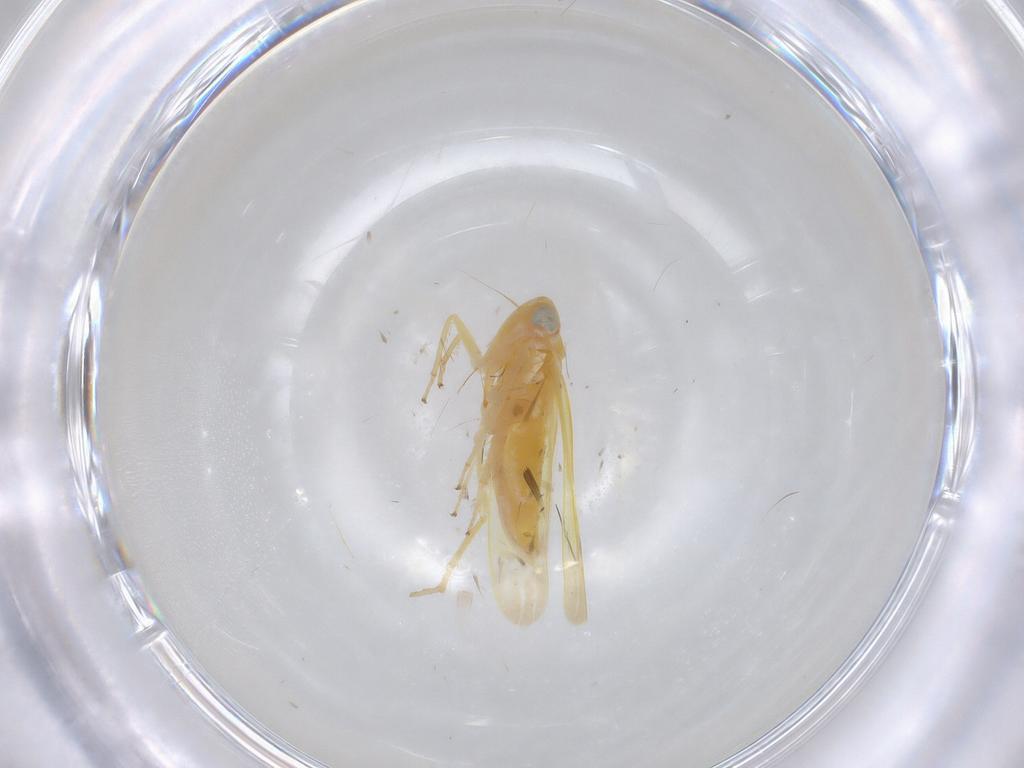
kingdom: Animalia
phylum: Arthropoda
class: Insecta
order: Hemiptera
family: Cicadellidae
